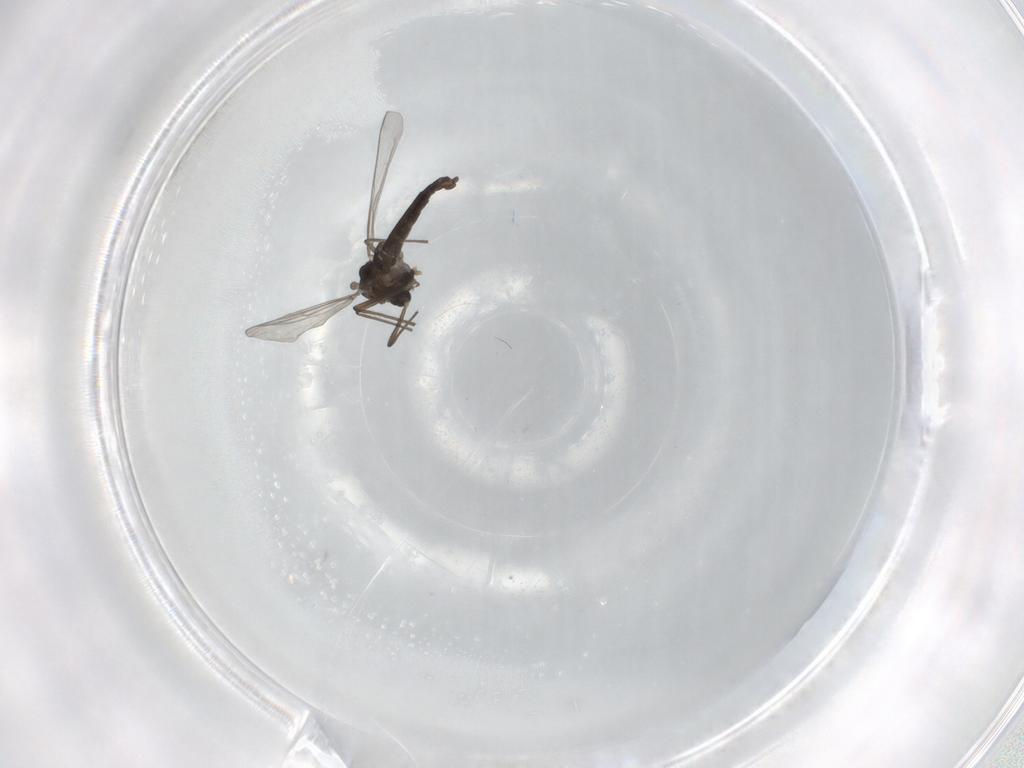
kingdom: Animalia
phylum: Arthropoda
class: Insecta
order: Diptera
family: Chironomidae
